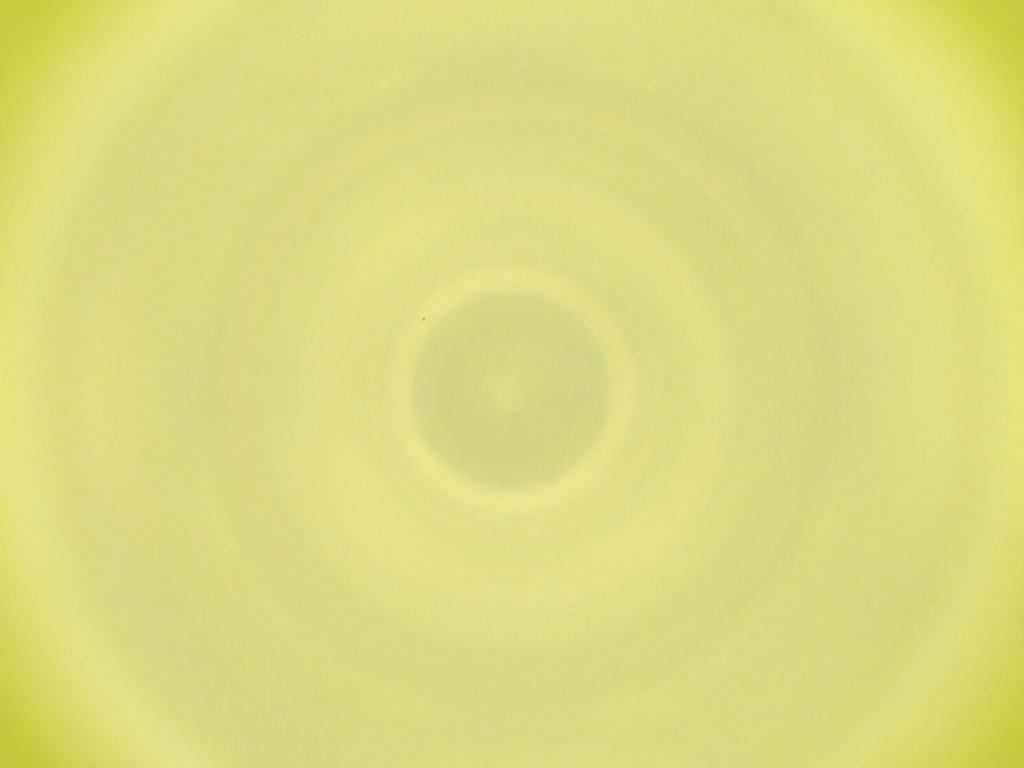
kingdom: Animalia
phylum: Arthropoda
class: Insecta
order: Diptera
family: Cecidomyiidae
